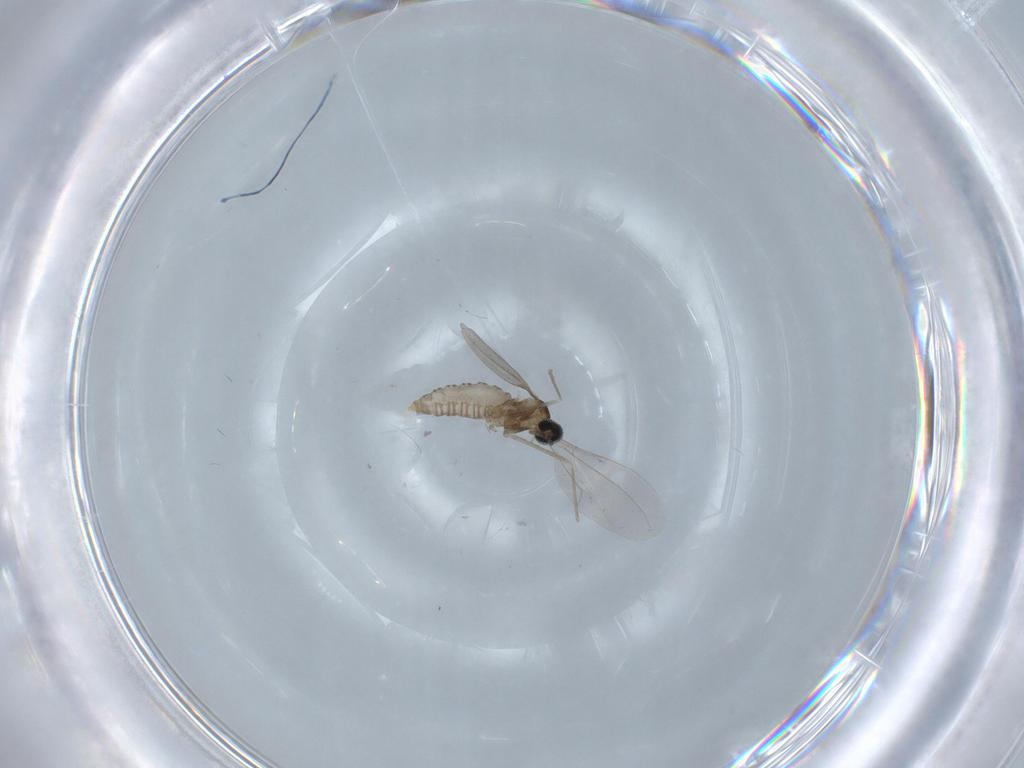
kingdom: Animalia
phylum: Arthropoda
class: Insecta
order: Diptera
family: Cecidomyiidae
